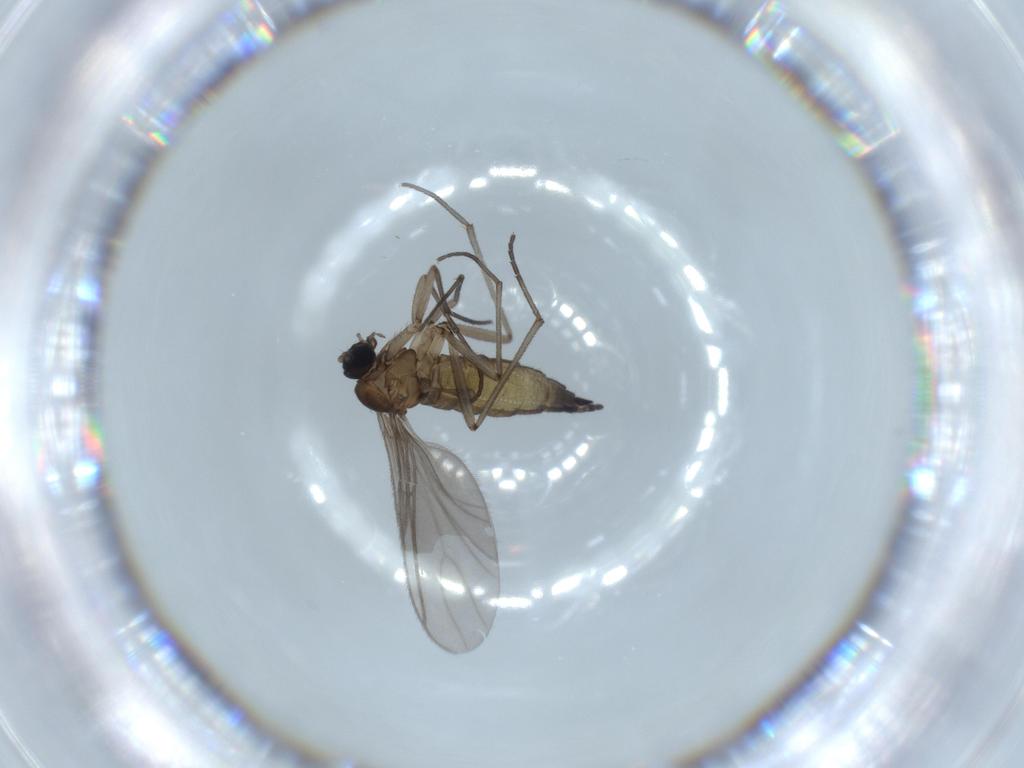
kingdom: Animalia
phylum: Arthropoda
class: Insecta
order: Diptera
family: Sciaridae
